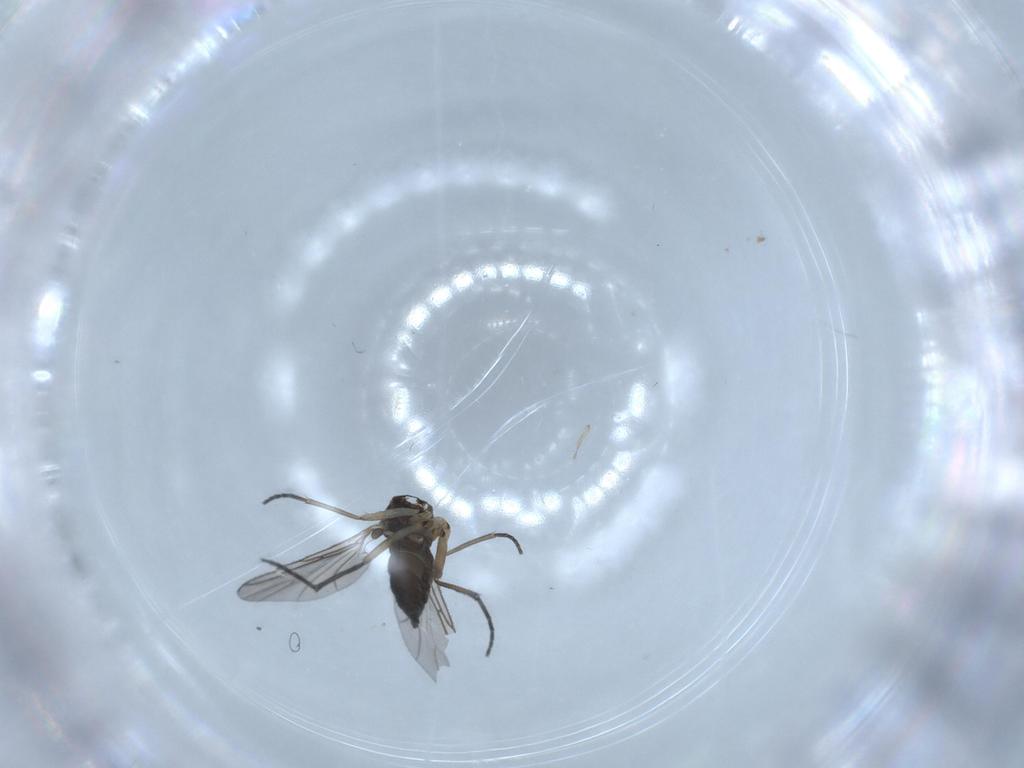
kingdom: Animalia
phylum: Arthropoda
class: Insecta
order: Diptera
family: Sciaridae
